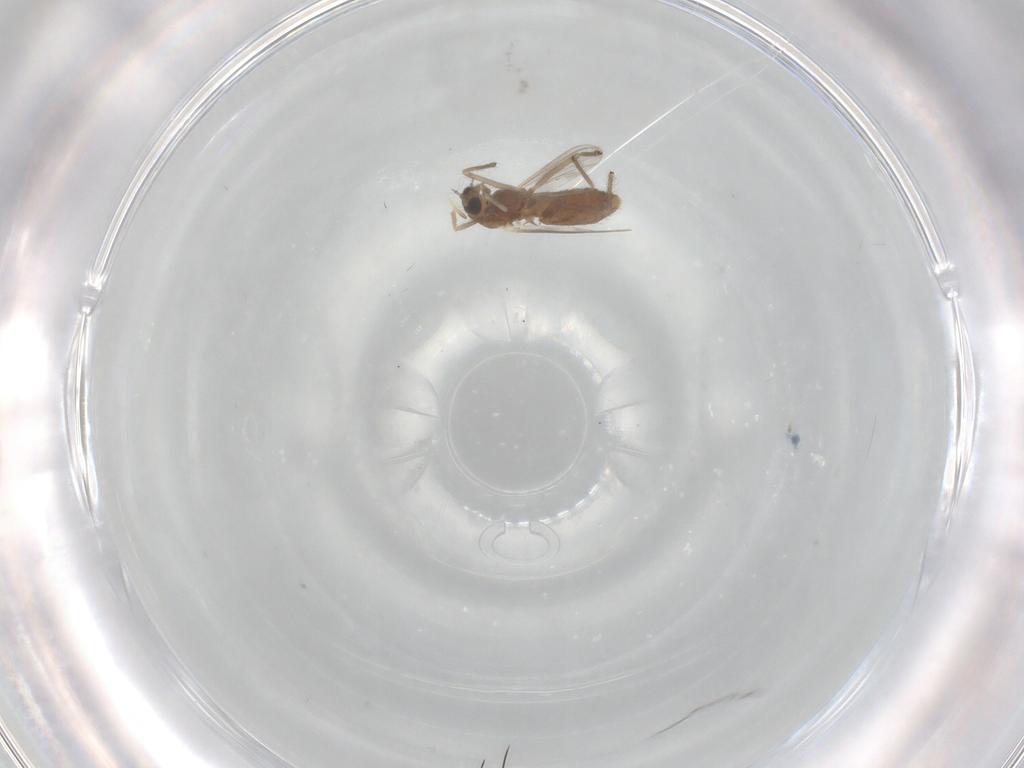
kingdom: Animalia
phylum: Arthropoda
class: Insecta
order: Diptera
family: Chironomidae
